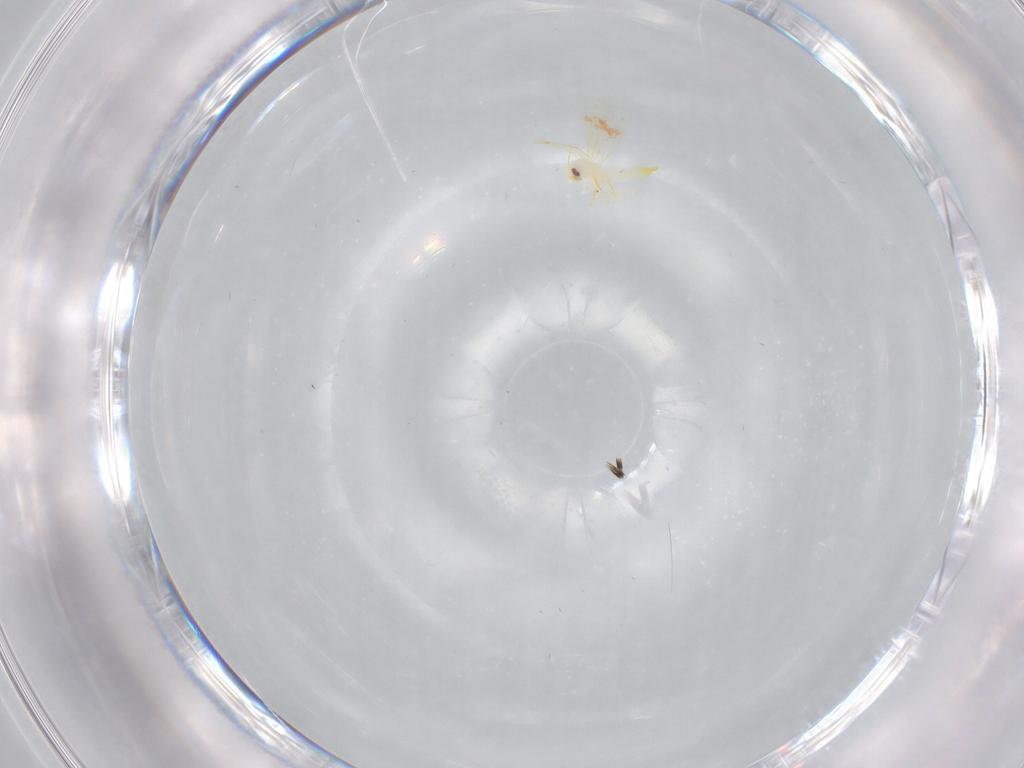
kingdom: Animalia
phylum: Arthropoda
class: Insecta
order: Hemiptera
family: Aleyrodidae
